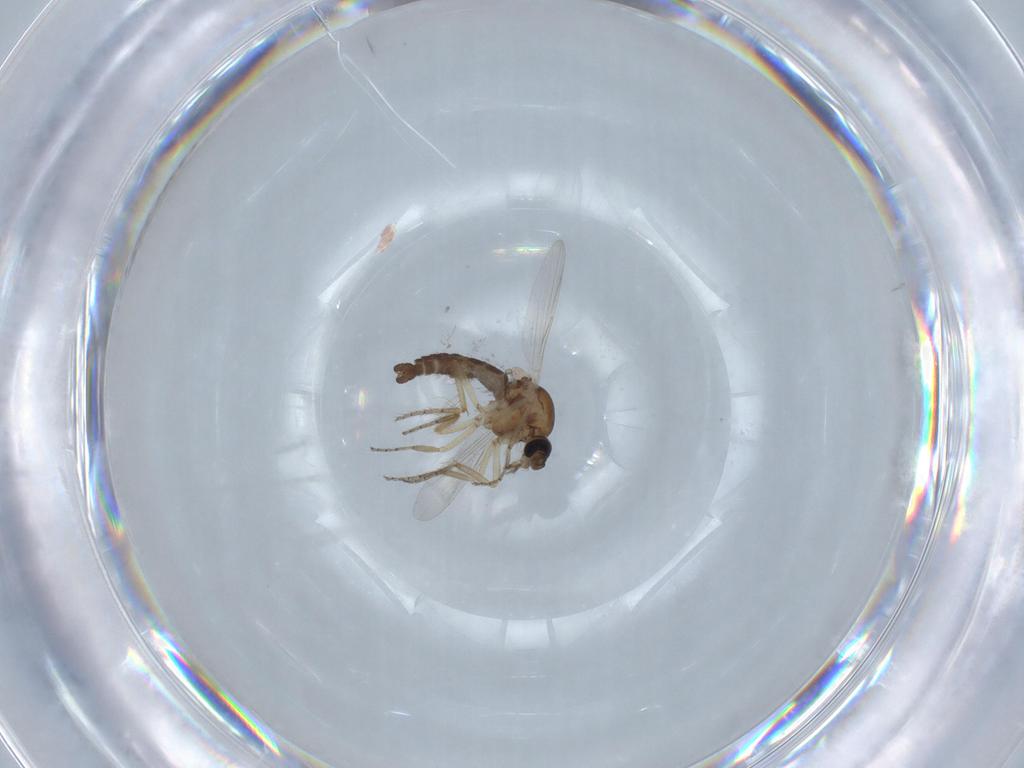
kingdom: Animalia
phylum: Arthropoda
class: Insecta
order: Diptera
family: Ceratopogonidae
